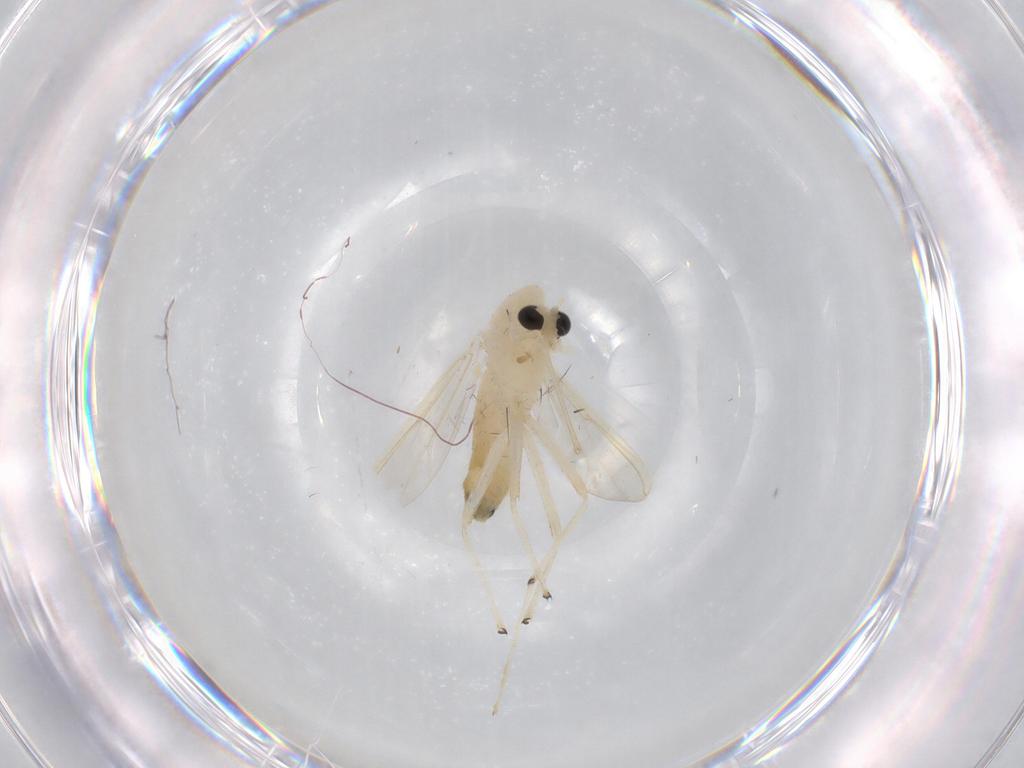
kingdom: Animalia
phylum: Arthropoda
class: Insecta
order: Diptera
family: Chironomidae
